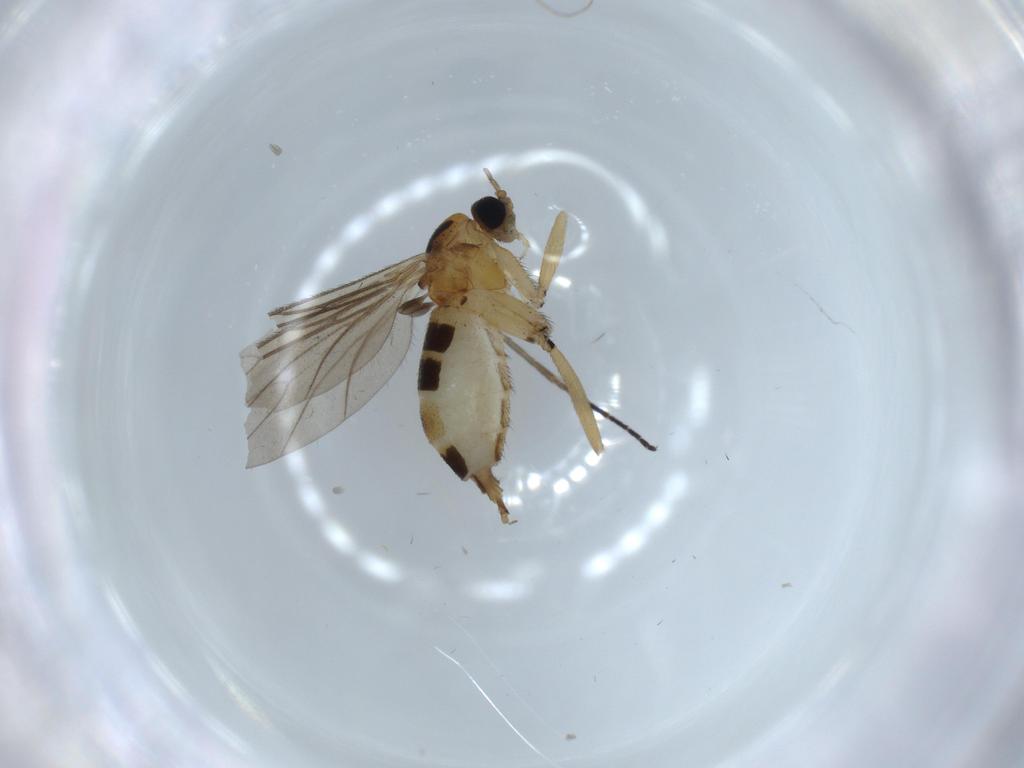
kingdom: Animalia
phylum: Arthropoda
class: Insecta
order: Diptera
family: Sciaridae
